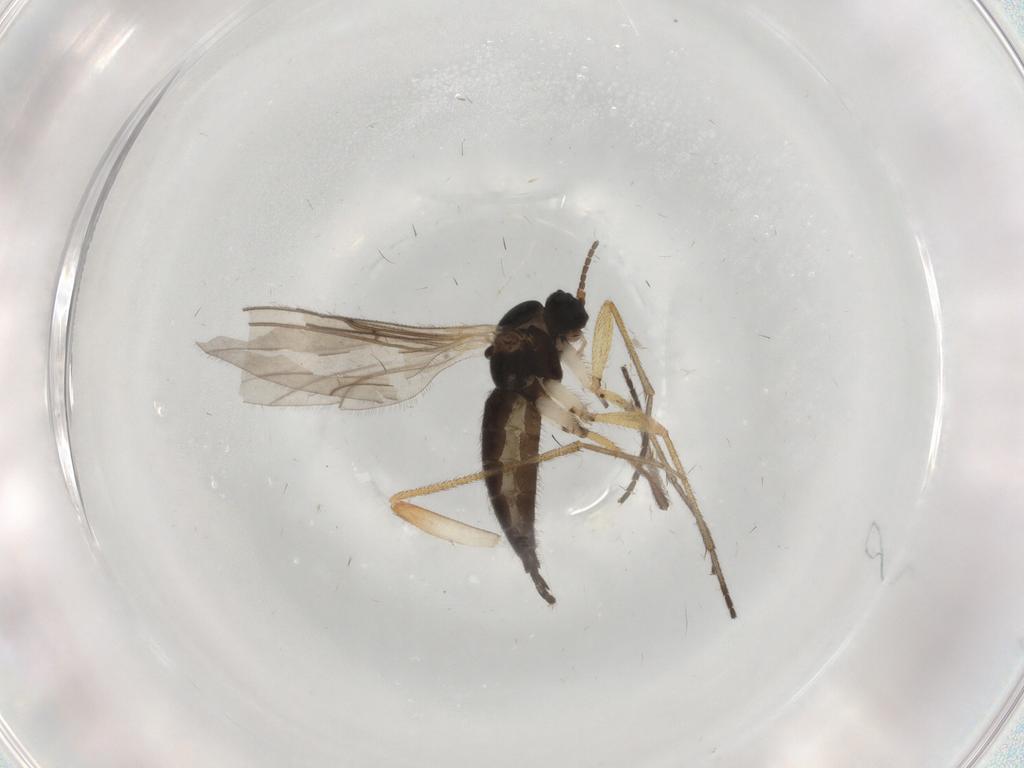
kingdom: Animalia
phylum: Arthropoda
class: Insecta
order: Diptera
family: Sciaridae
